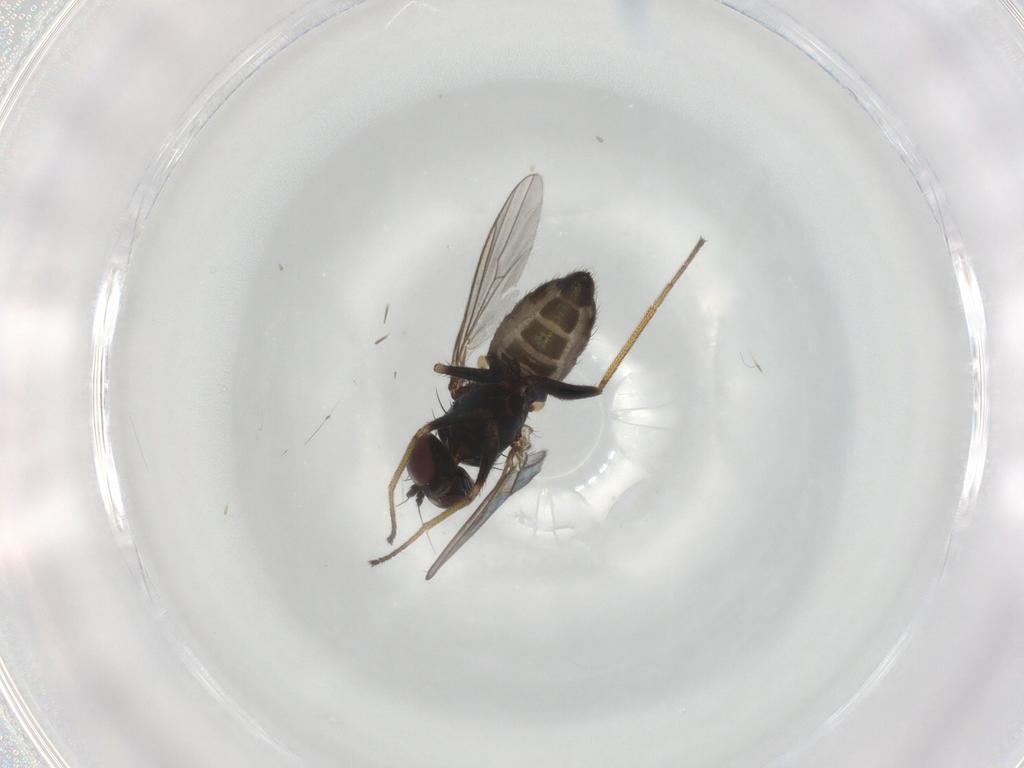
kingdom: Animalia
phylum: Arthropoda
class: Insecta
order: Diptera
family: Dolichopodidae
